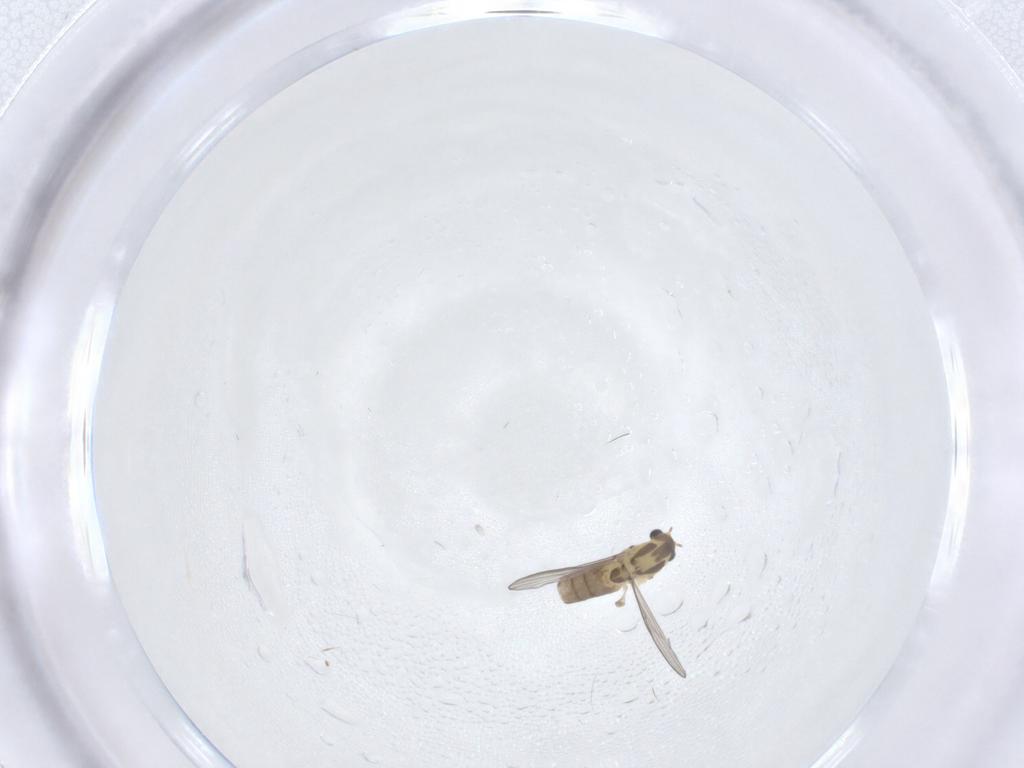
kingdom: Animalia
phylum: Arthropoda
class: Insecta
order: Diptera
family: Chironomidae
